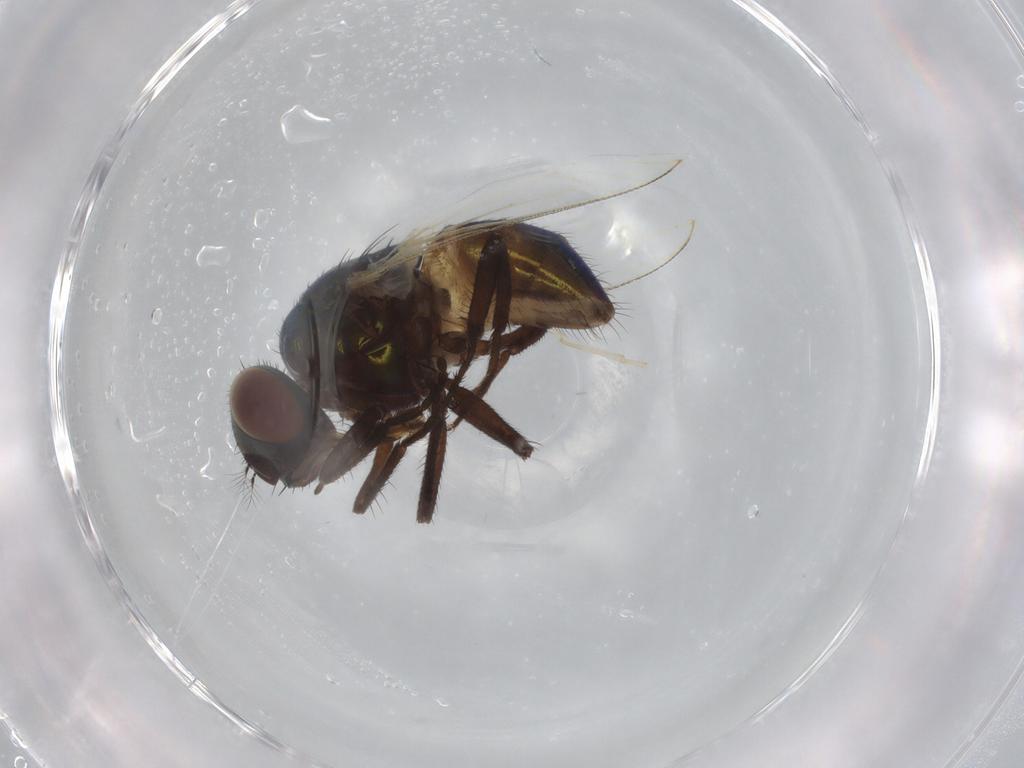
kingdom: Animalia
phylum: Arthropoda
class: Insecta
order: Diptera
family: Muscidae
